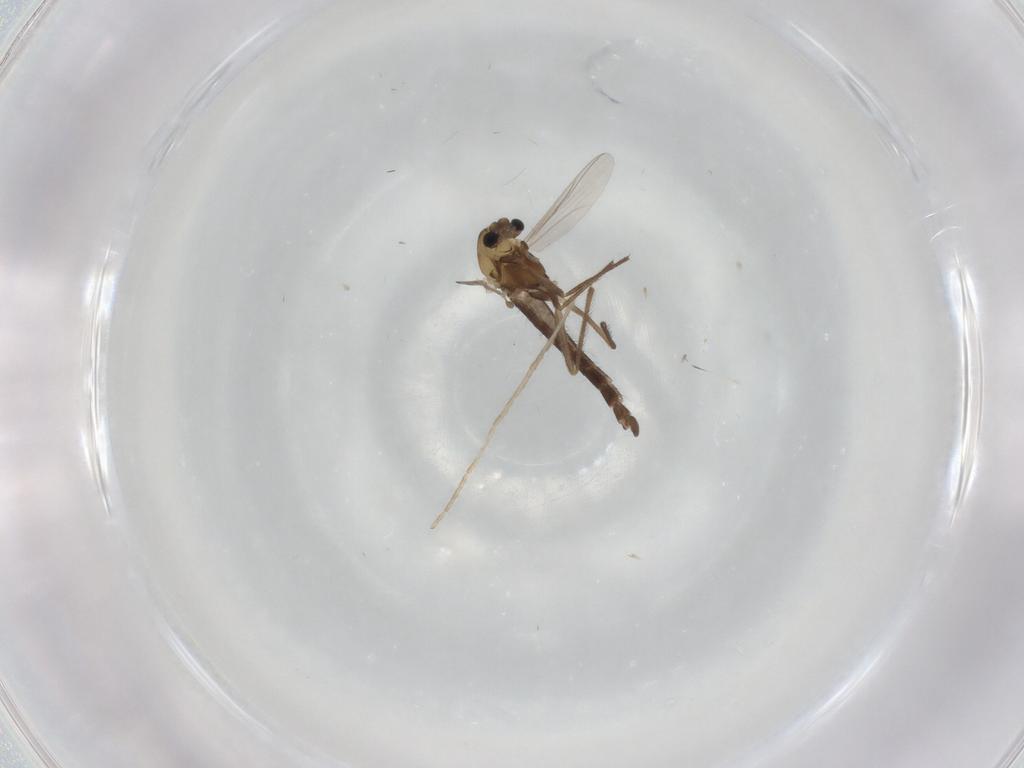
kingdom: Animalia
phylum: Arthropoda
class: Insecta
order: Diptera
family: Chironomidae
